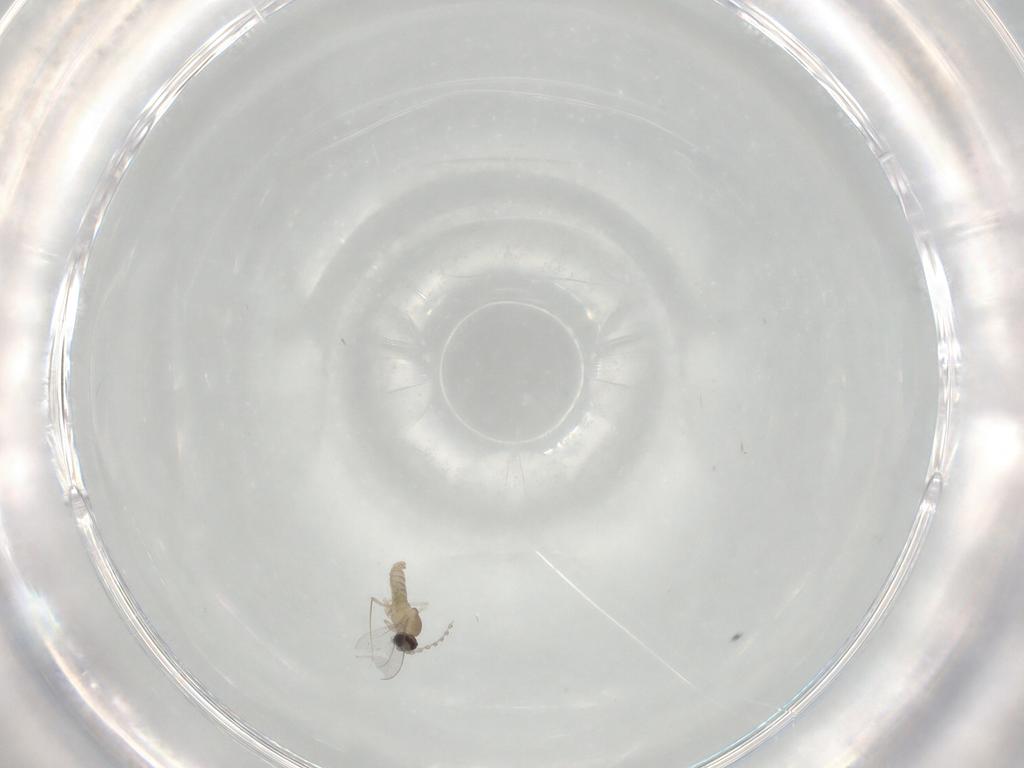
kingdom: Animalia
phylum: Arthropoda
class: Insecta
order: Diptera
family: Cecidomyiidae
